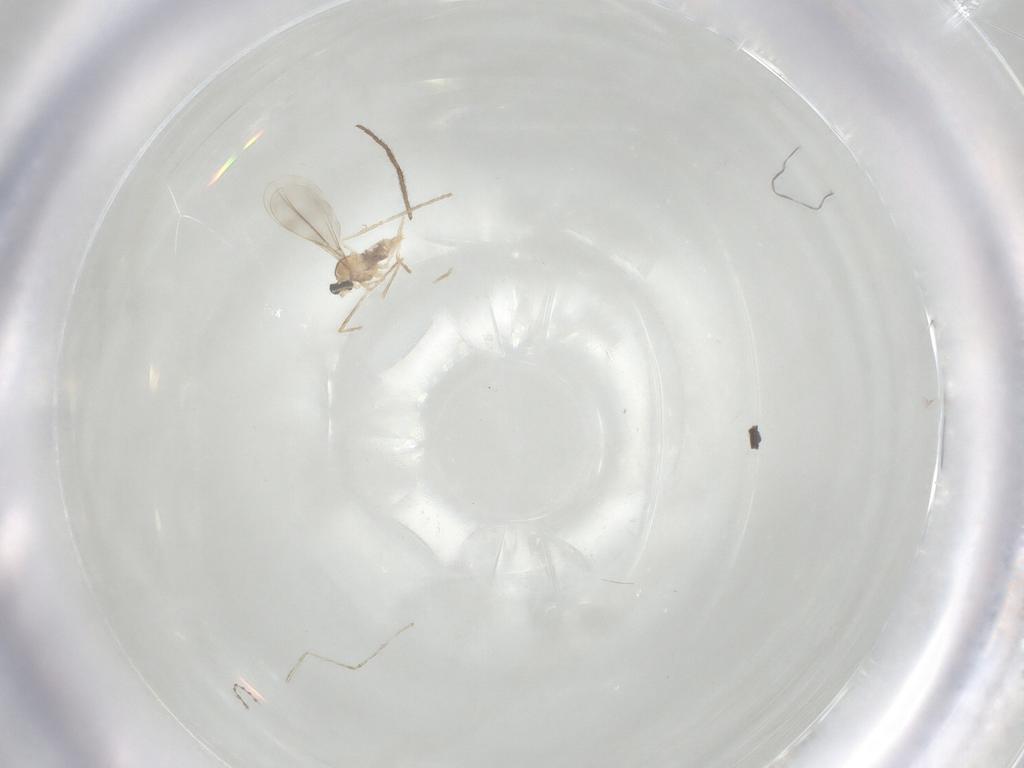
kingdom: Animalia
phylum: Arthropoda
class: Insecta
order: Diptera
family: Chironomidae
